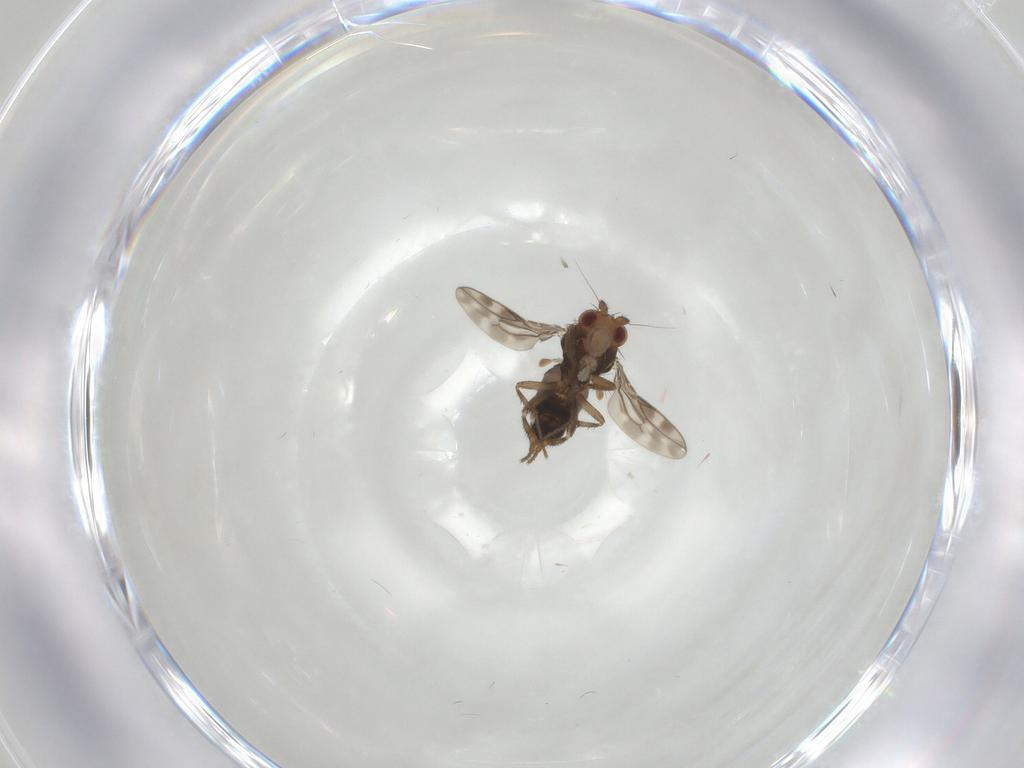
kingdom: Animalia
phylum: Arthropoda
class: Insecta
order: Diptera
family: Sphaeroceridae
